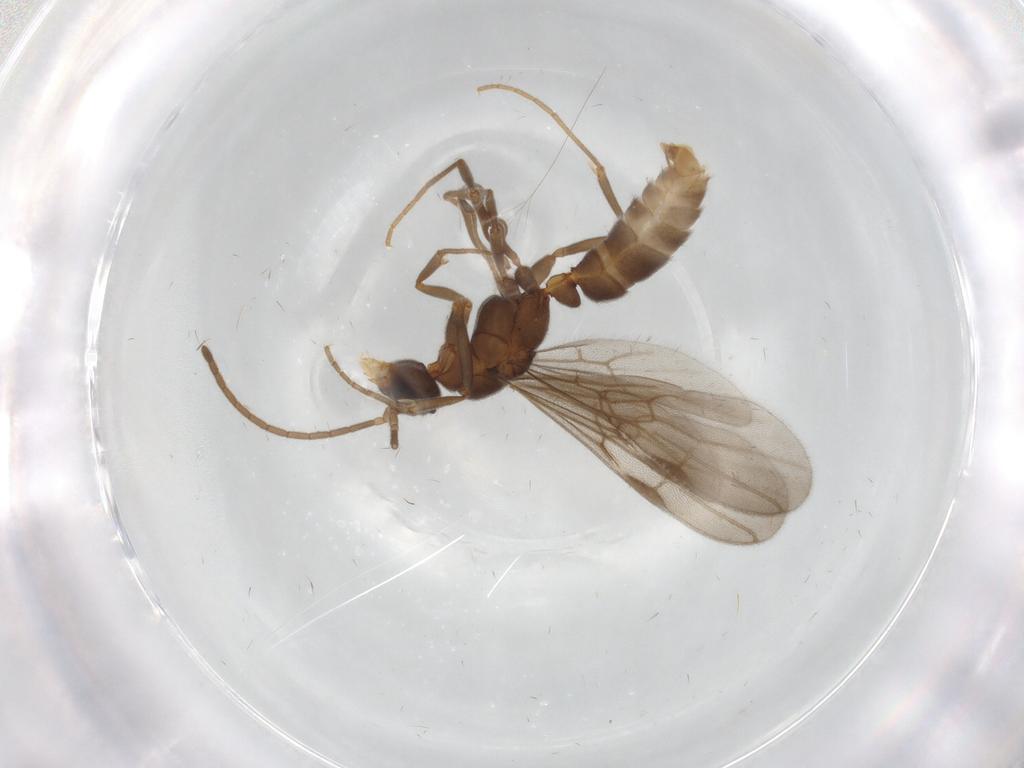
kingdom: Animalia
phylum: Arthropoda
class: Insecta
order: Hymenoptera
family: Formicidae
